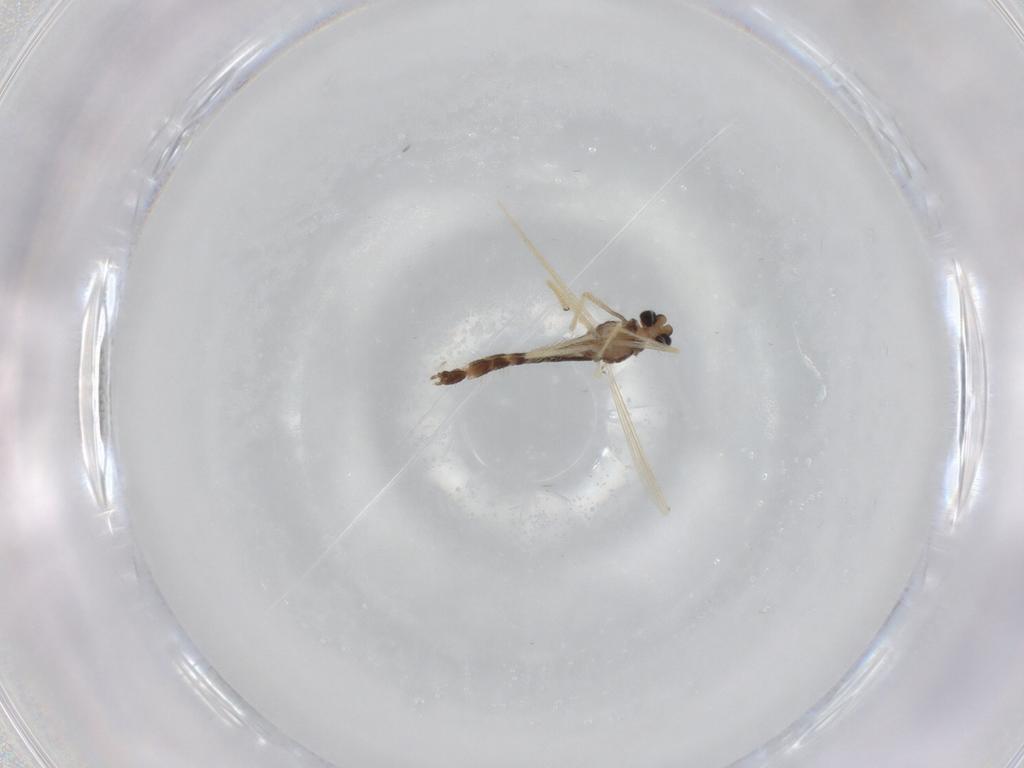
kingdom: Animalia
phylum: Arthropoda
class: Insecta
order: Diptera
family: Chironomidae
